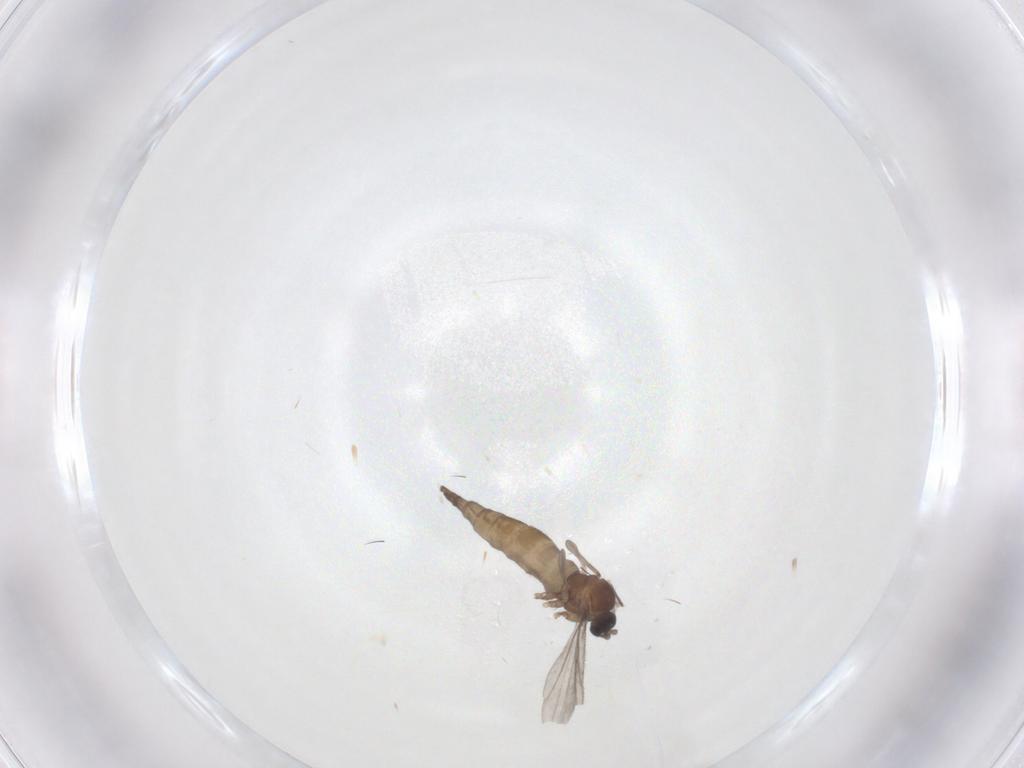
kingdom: Animalia
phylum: Arthropoda
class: Insecta
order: Diptera
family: Sciaridae
